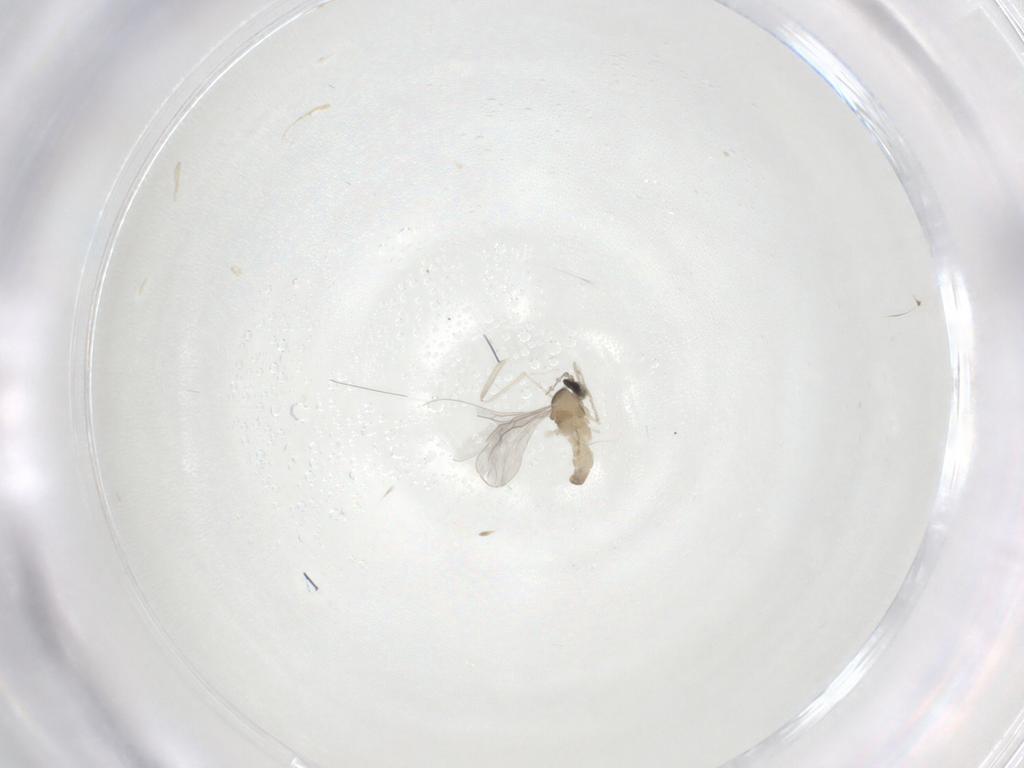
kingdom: Animalia
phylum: Arthropoda
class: Insecta
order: Diptera
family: Cecidomyiidae
